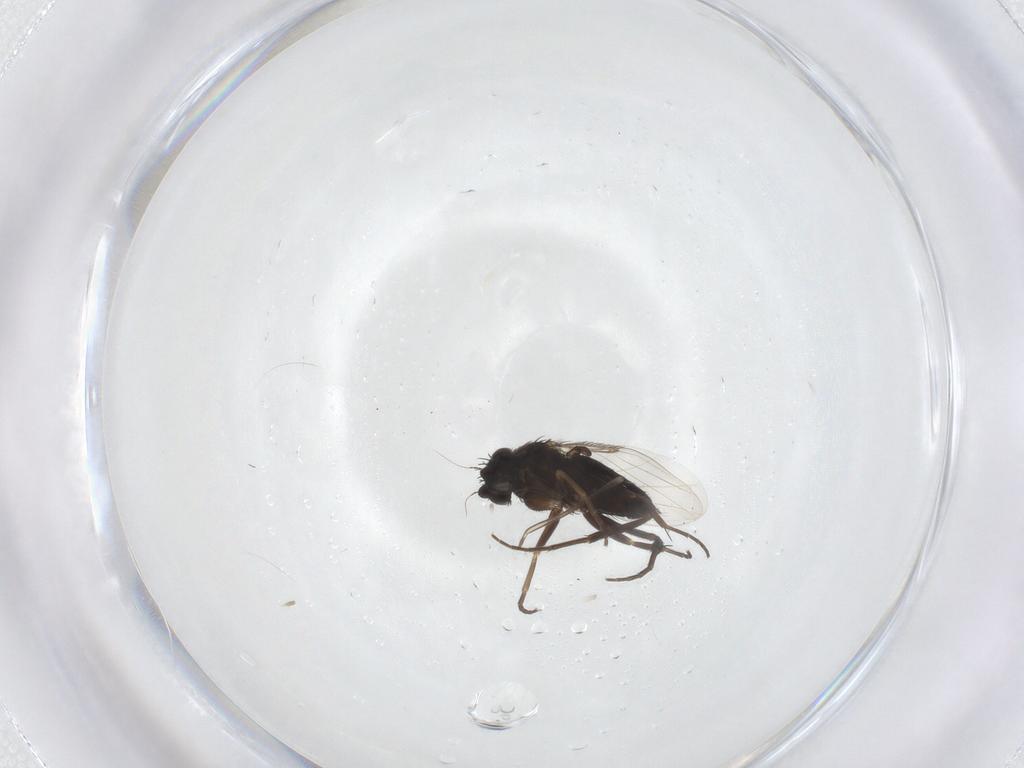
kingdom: Animalia
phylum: Arthropoda
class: Insecta
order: Diptera
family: Phoridae
